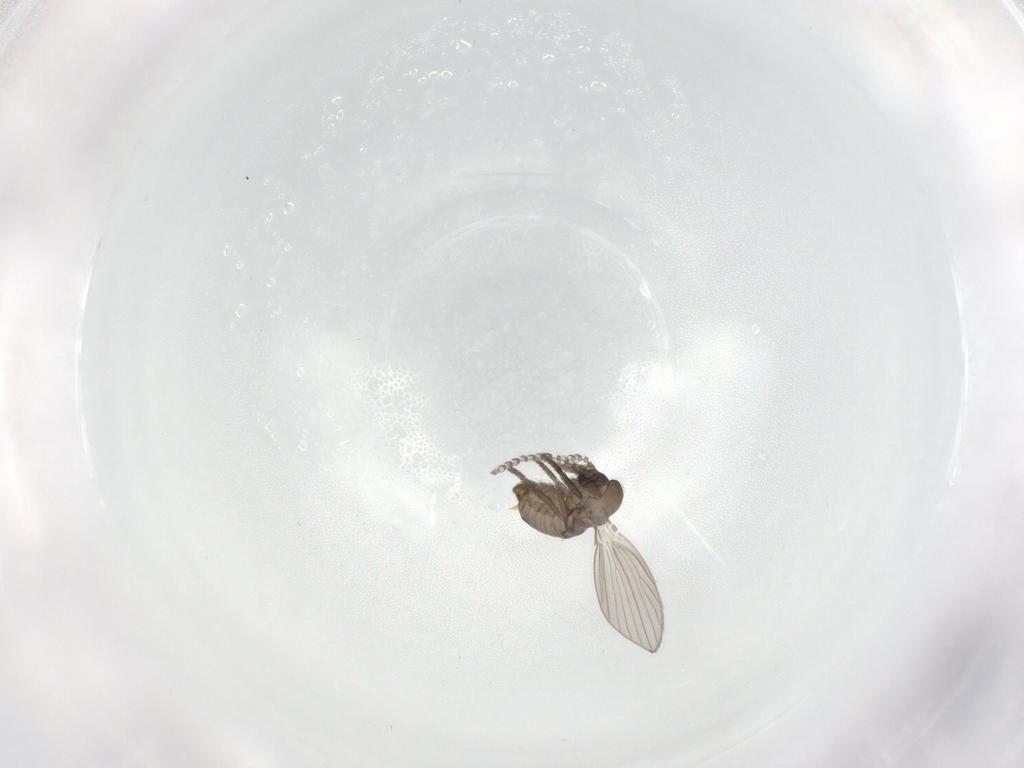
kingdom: Animalia
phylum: Arthropoda
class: Insecta
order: Diptera
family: Psychodidae
